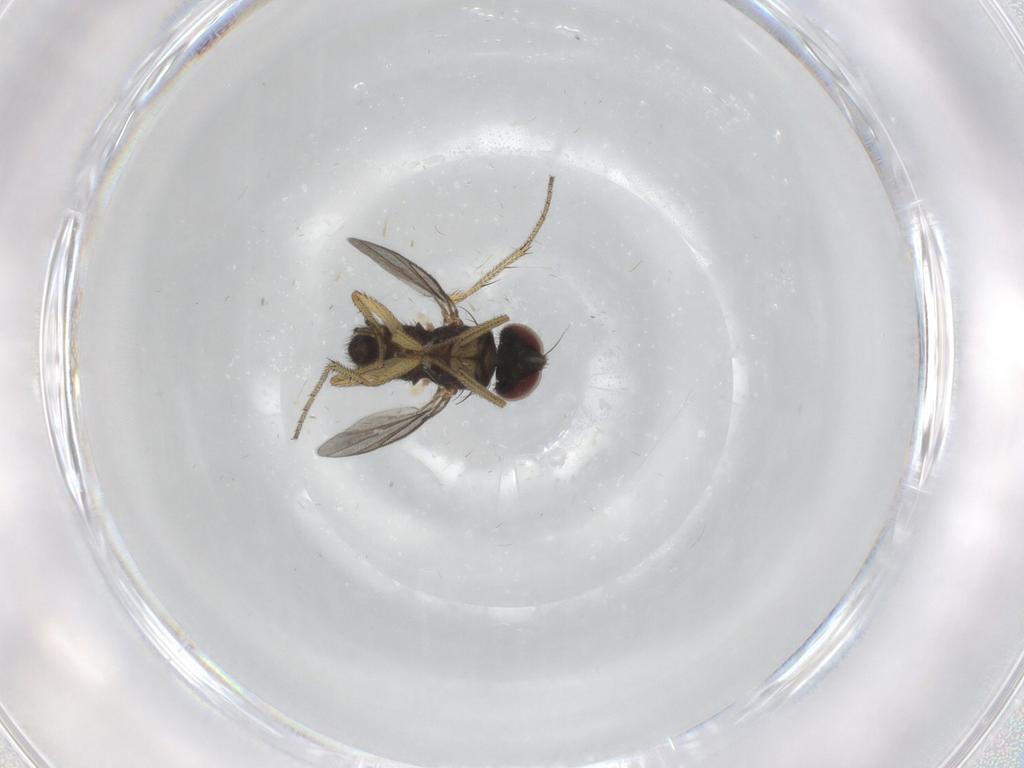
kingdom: Animalia
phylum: Arthropoda
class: Insecta
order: Diptera
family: Dolichopodidae
